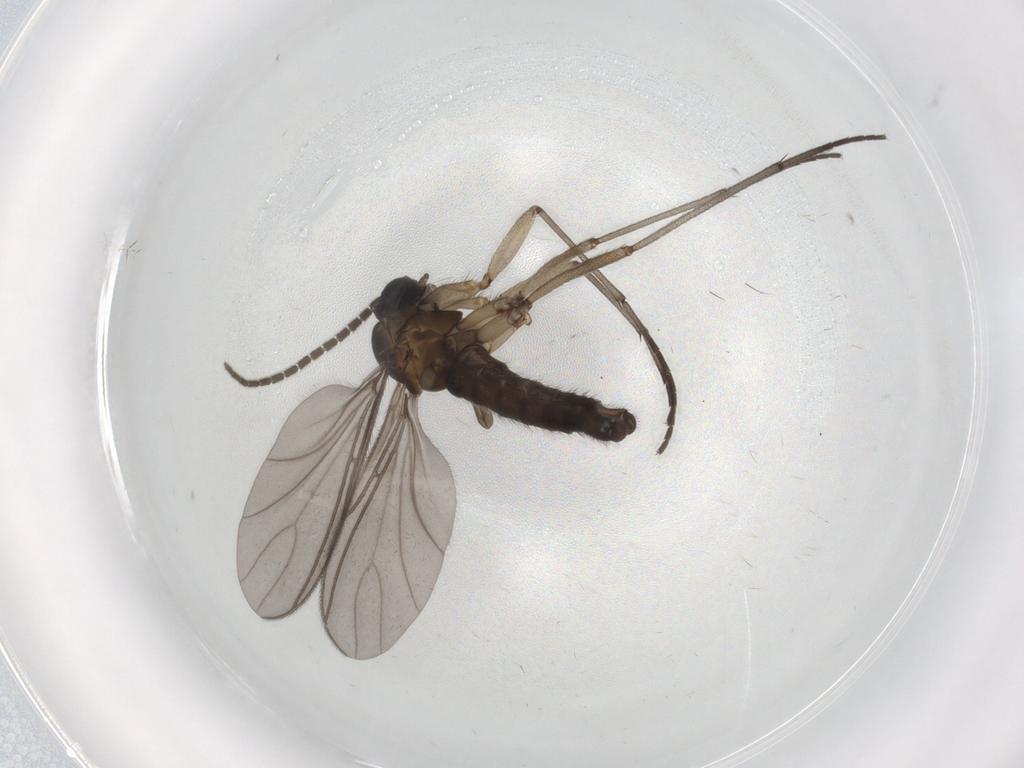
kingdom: Animalia
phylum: Arthropoda
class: Insecta
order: Diptera
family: Sciaridae
